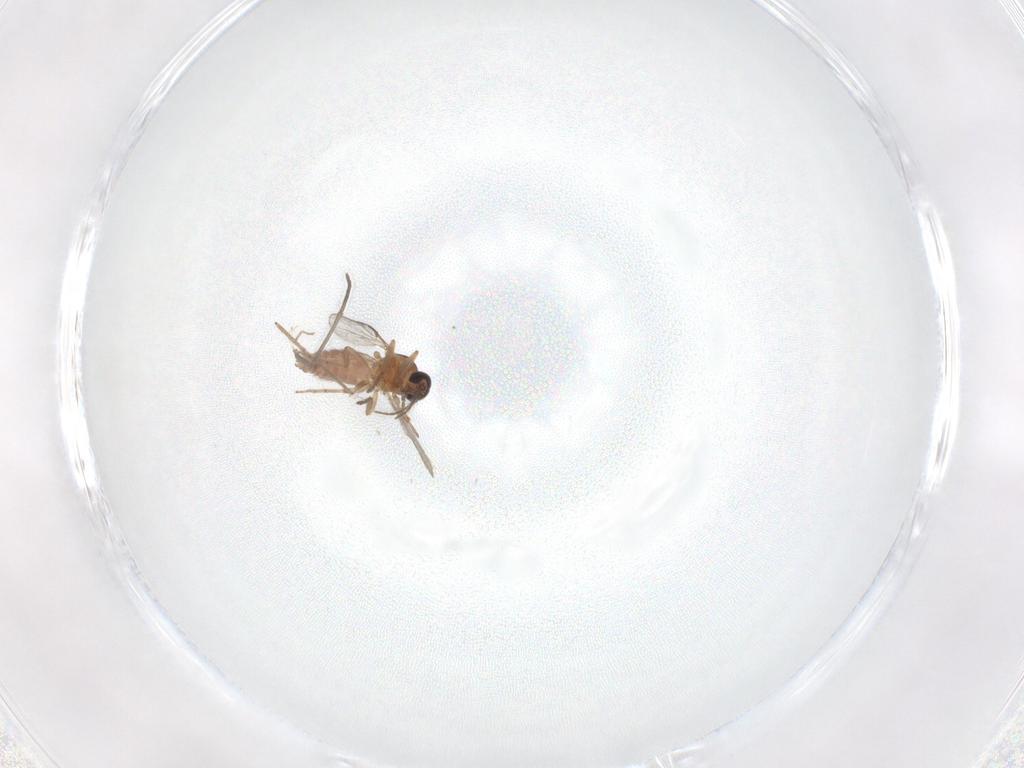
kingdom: Animalia
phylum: Arthropoda
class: Insecta
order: Diptera
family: Ceratopogonidae
